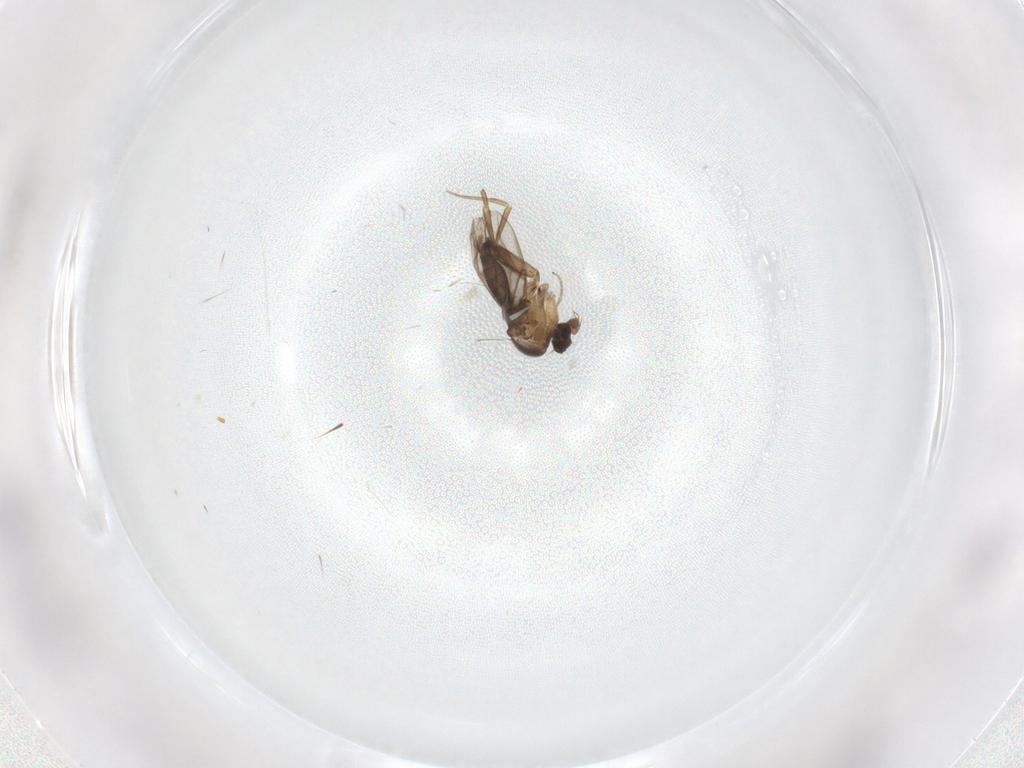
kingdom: Animalia
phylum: Arthropoda
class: Insecta
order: Diptera
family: Phoridae
